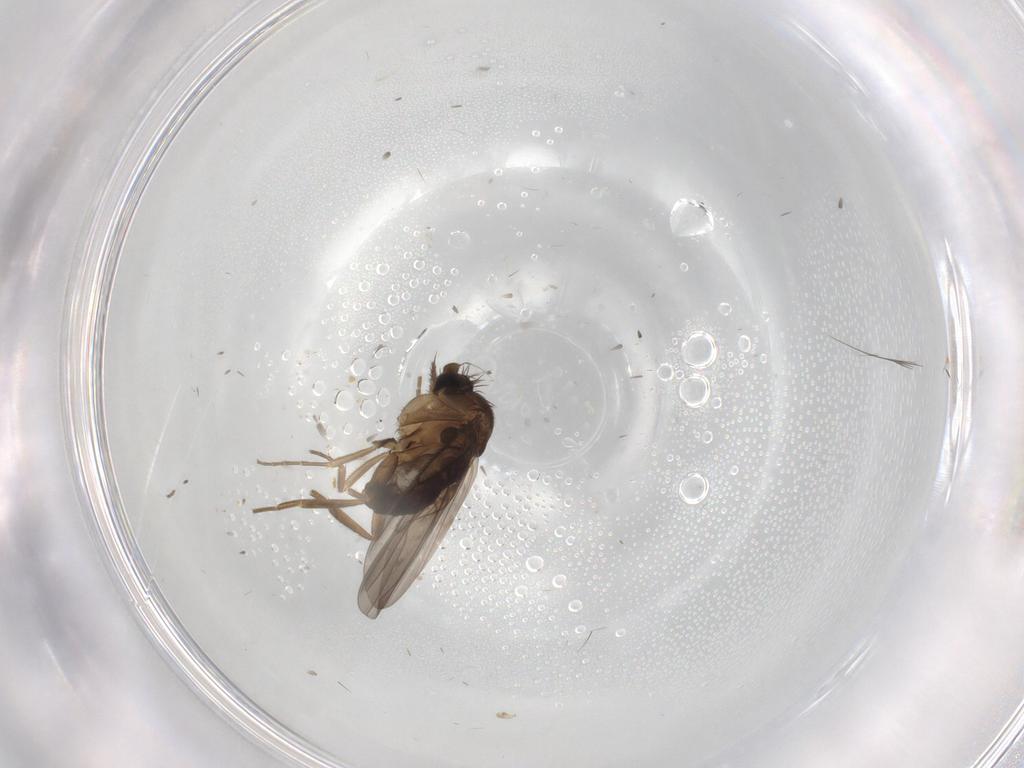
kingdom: Animalia
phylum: Arthropoda
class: Insecta
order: Diptera
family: Phoridae
